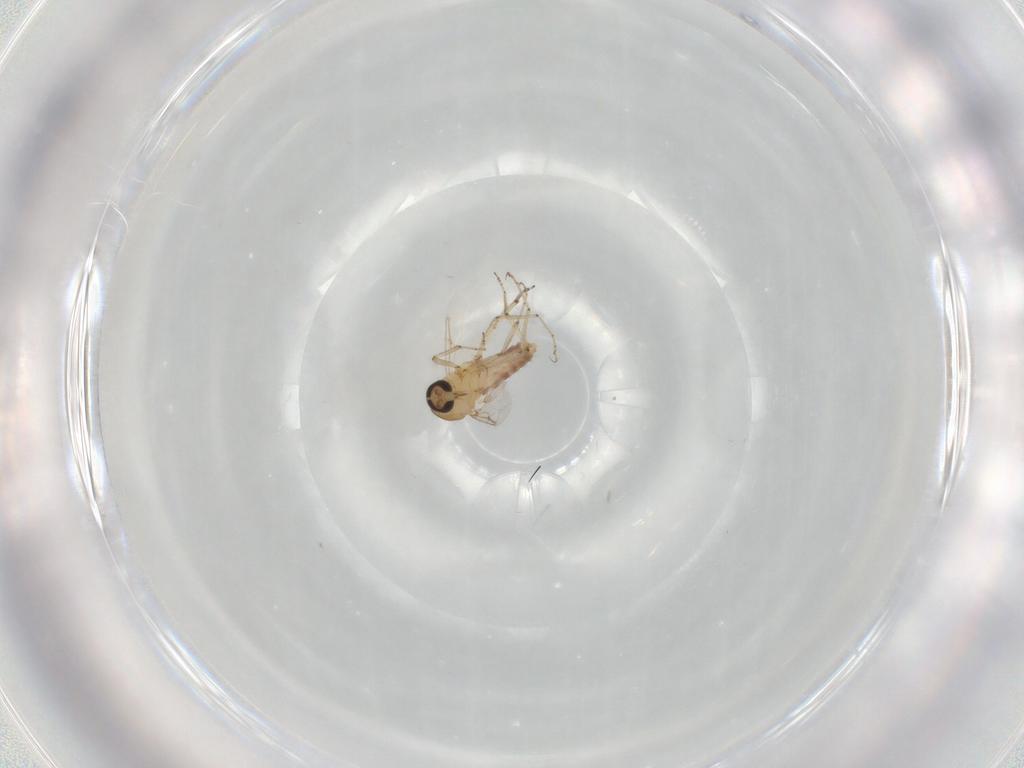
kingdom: Animalia
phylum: Arthropoda
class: Insecta
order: Diptera
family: Ceratopogonidae
